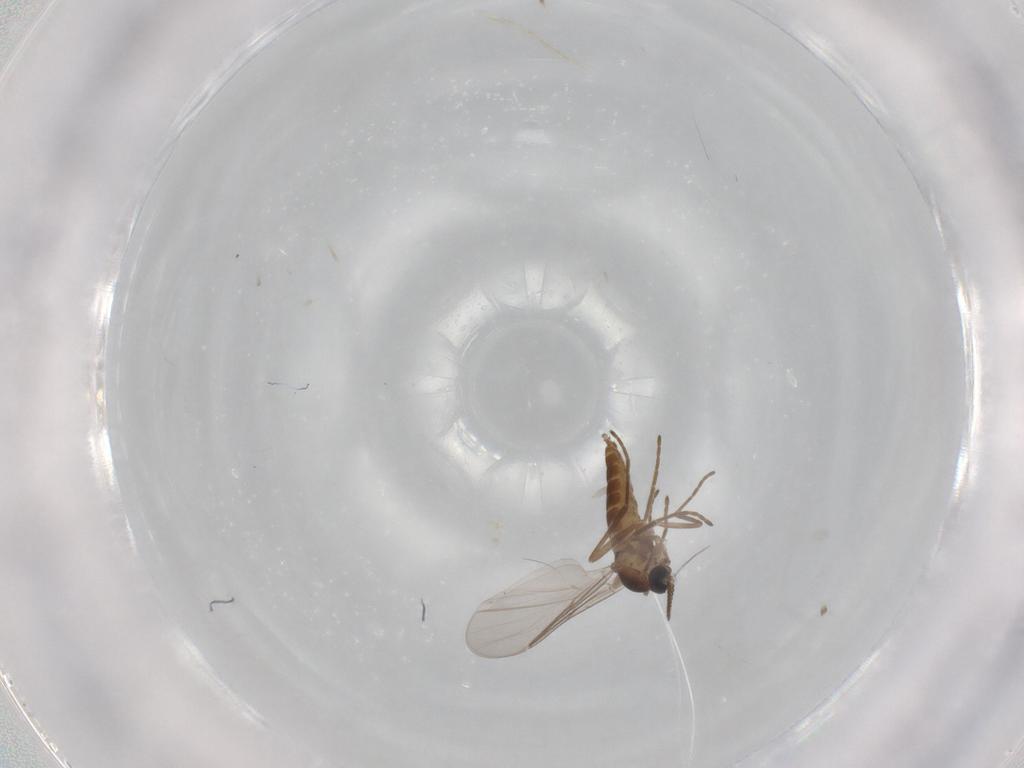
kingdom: Animalia
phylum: Arthropoda
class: Insecta
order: Diptera
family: Cecidomyiidae
